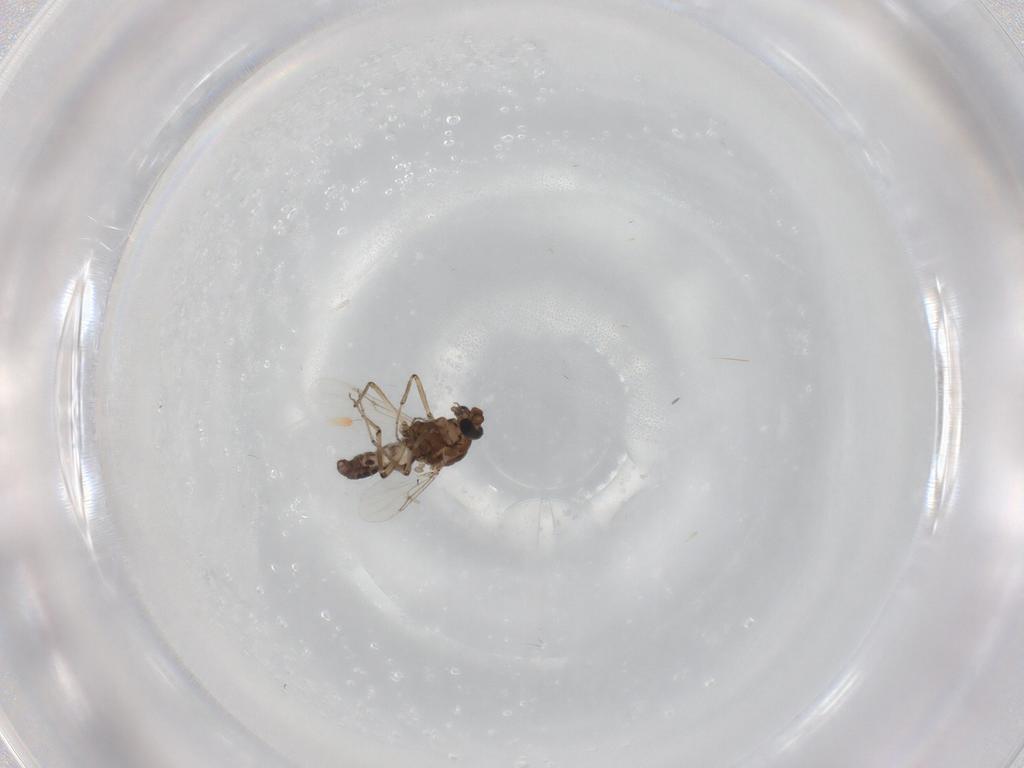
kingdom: Animalia
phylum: Arthropoda
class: Insecta
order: Diptera
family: Ceratopogonidae
